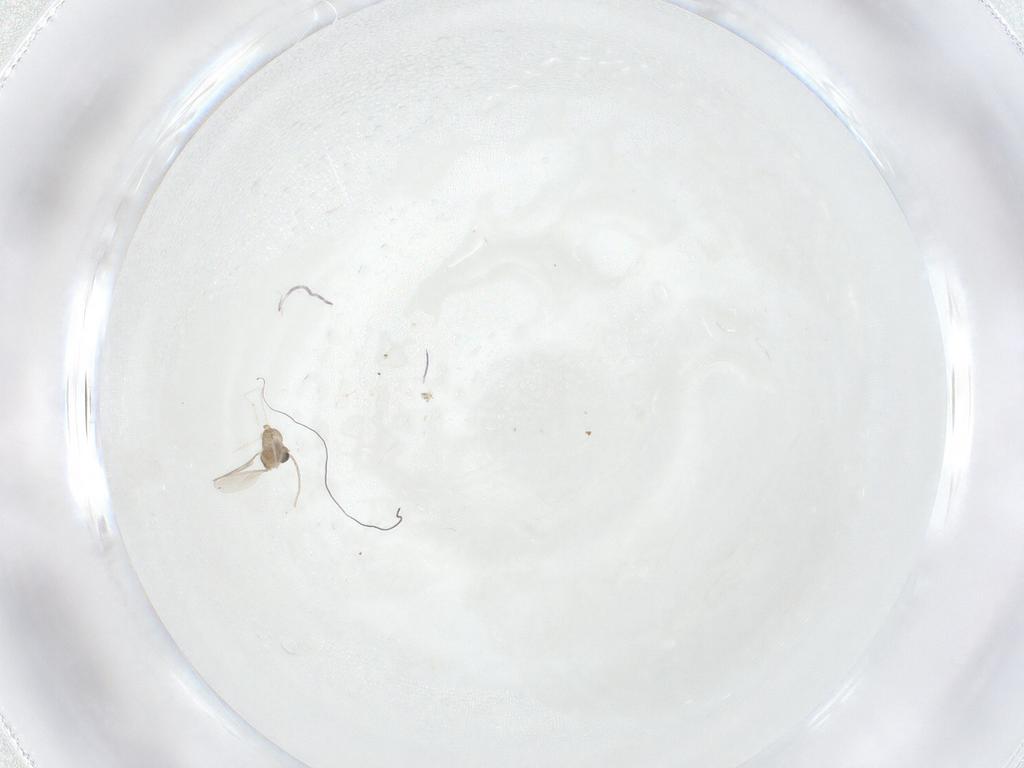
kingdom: Animalia
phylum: Arthropoda
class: Insecta
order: Diptera
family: Cecidomyiidae
